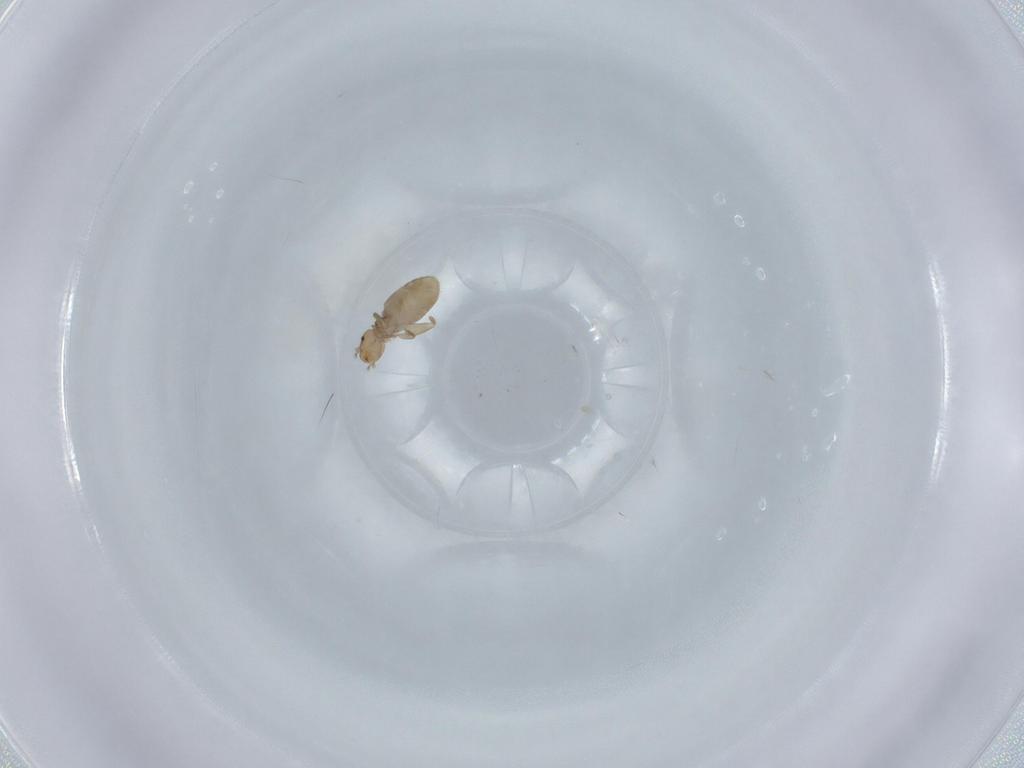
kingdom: Animalia
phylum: Arthropoda
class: Insecta
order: Psocodea
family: Liposcelididae
